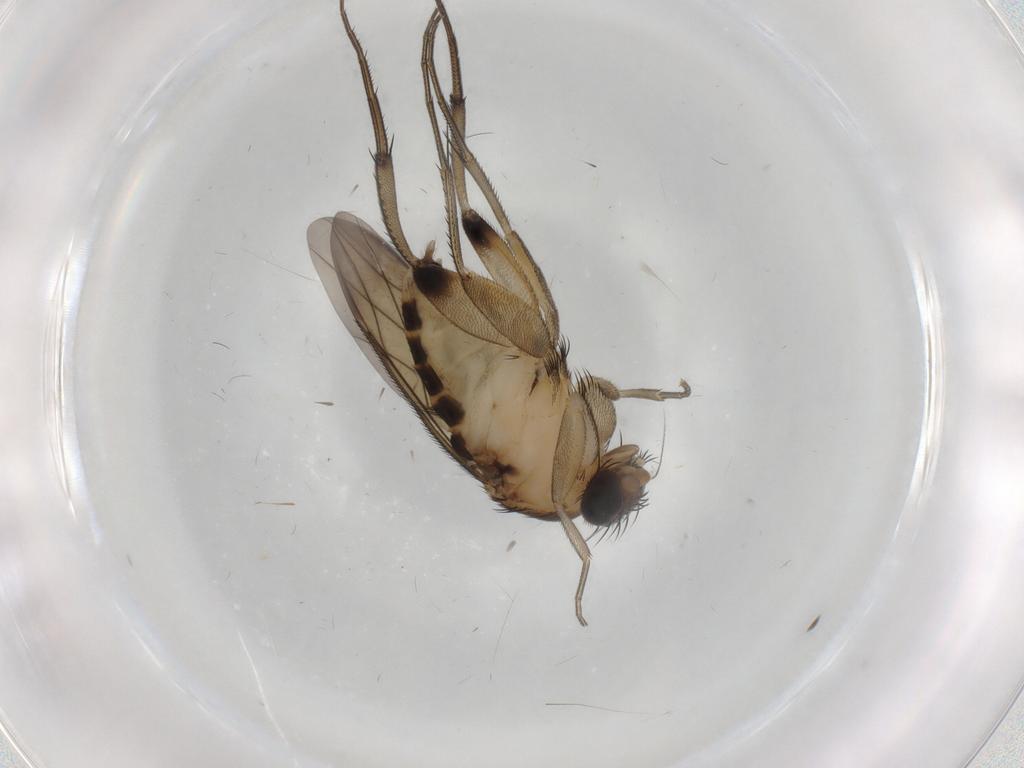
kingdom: Animalia
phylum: Arthropoda
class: Insecta
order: Diptera
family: Phoridae
